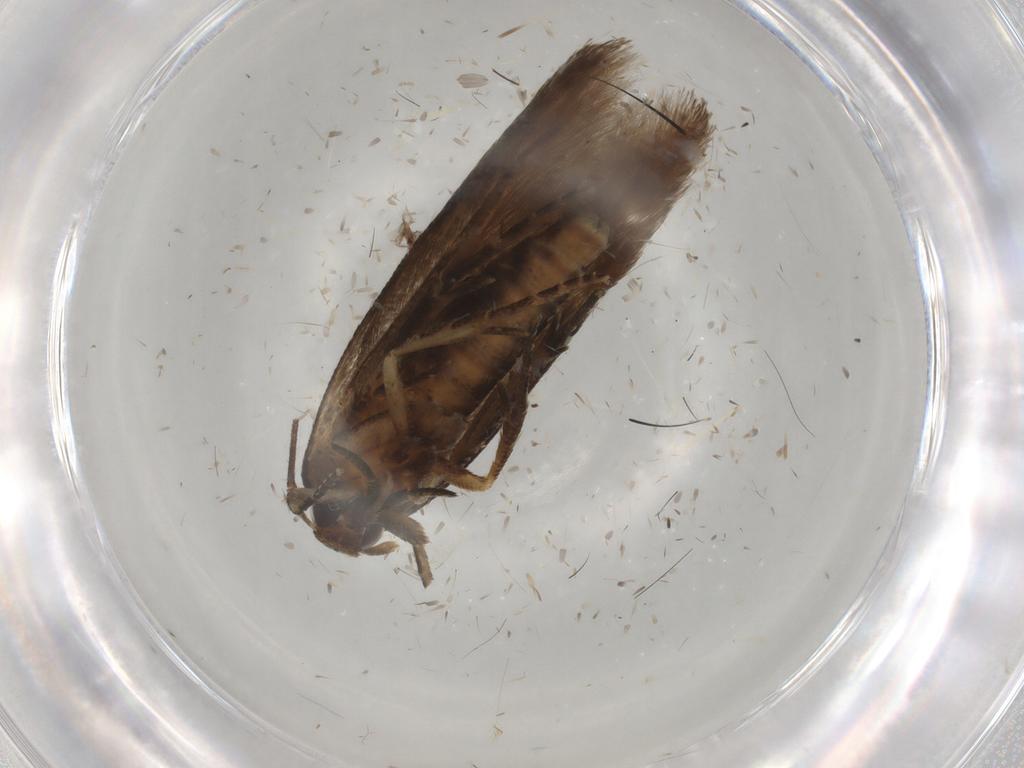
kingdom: Animalia
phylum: Arthropoda
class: Insecta
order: Lepidoptera
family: Pieridae
